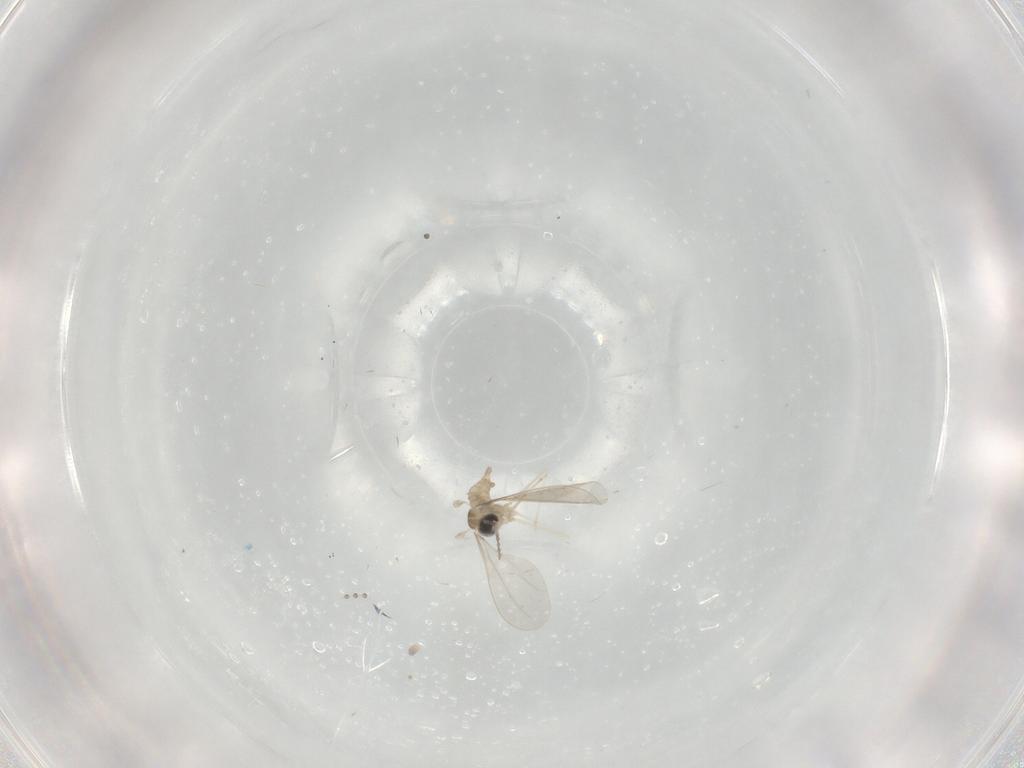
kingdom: Animalia
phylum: Arthropoda
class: Insecta
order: Diptera
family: Cecidomyiidae
